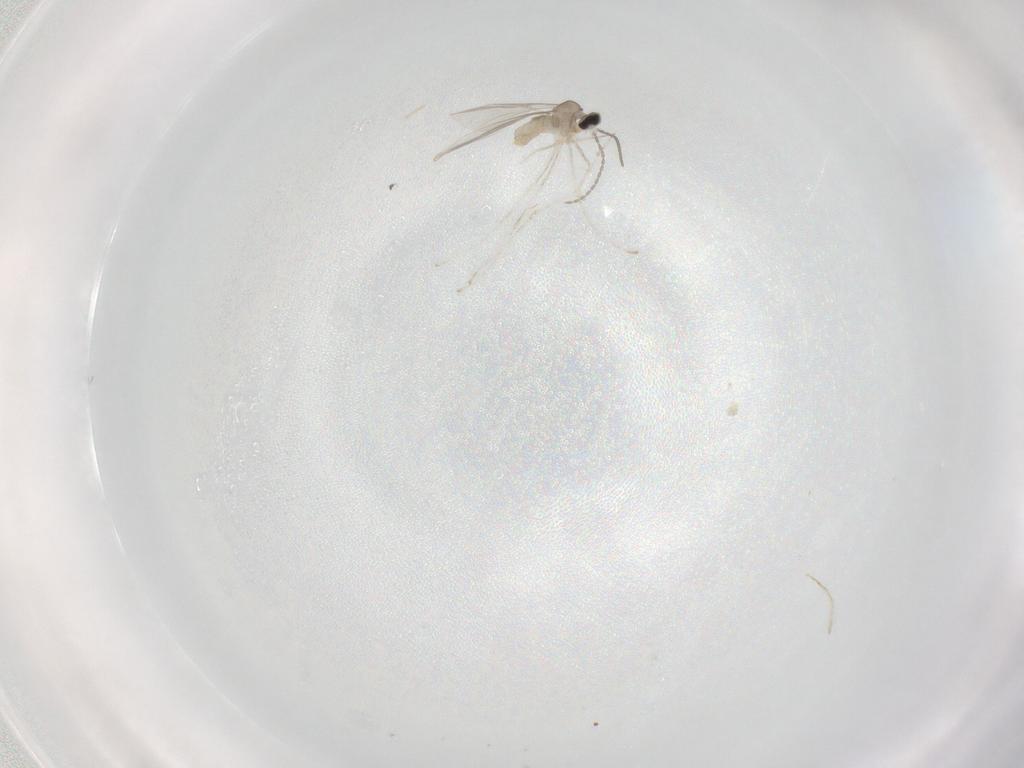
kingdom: Animalia
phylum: Arthropoda
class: Insecta
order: Diptera
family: Cecidomyiidae
